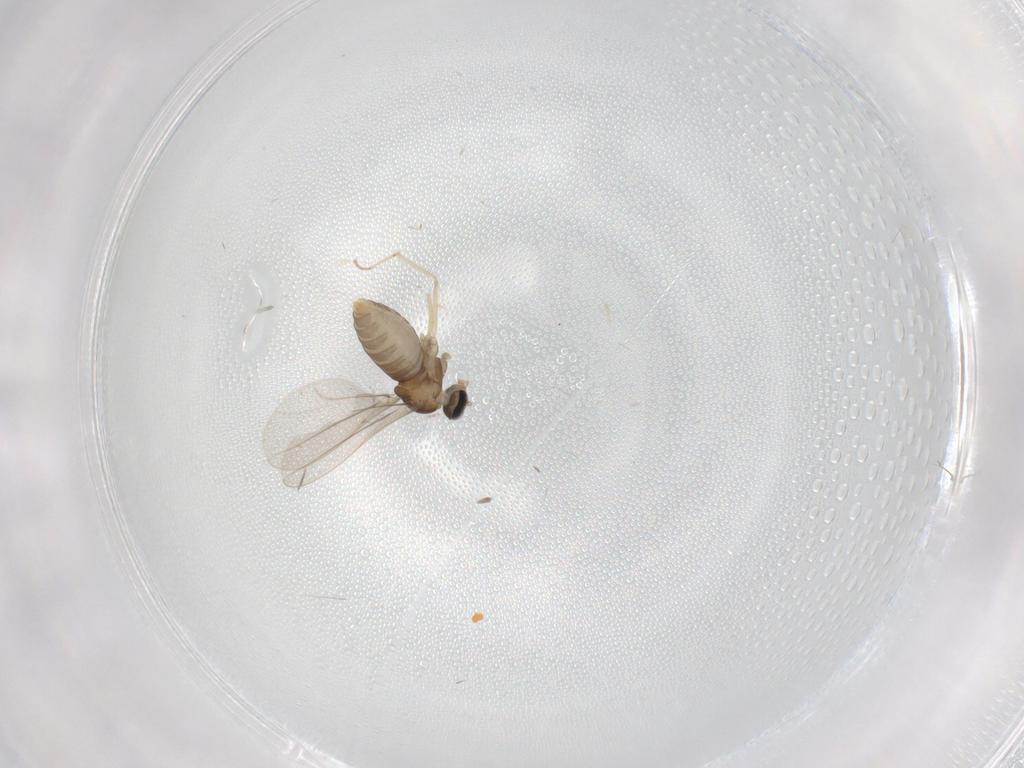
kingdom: Animalia
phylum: Arthropoda
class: Insecta
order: Diptera
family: Cecidomyiidae
